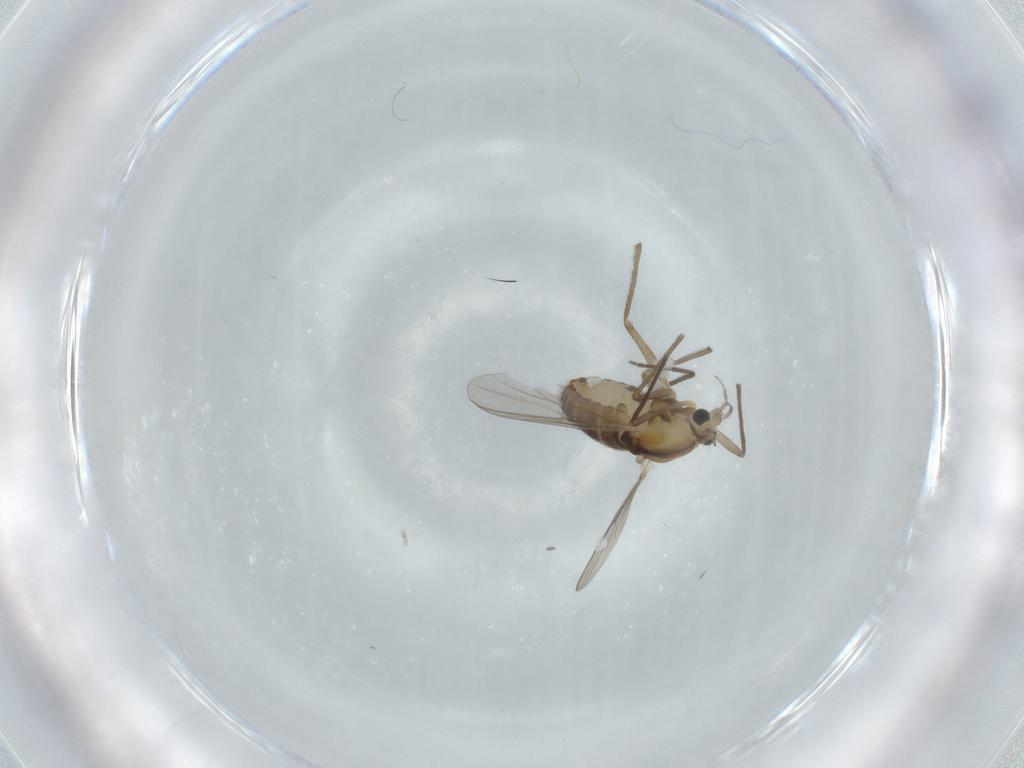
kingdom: Animalia
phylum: Arthropoda
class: Insecta
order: Diptera
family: Chironomidae
